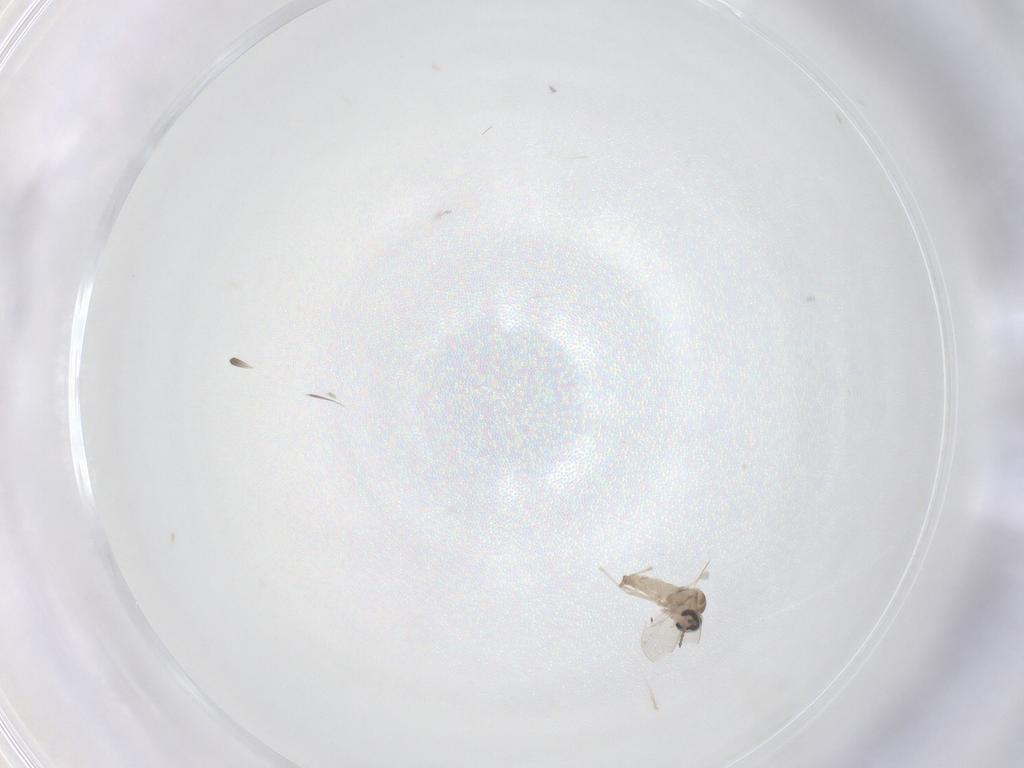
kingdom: Animalia
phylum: Arthropoda
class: Insecta
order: Diptera
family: Cecidomyiidae
